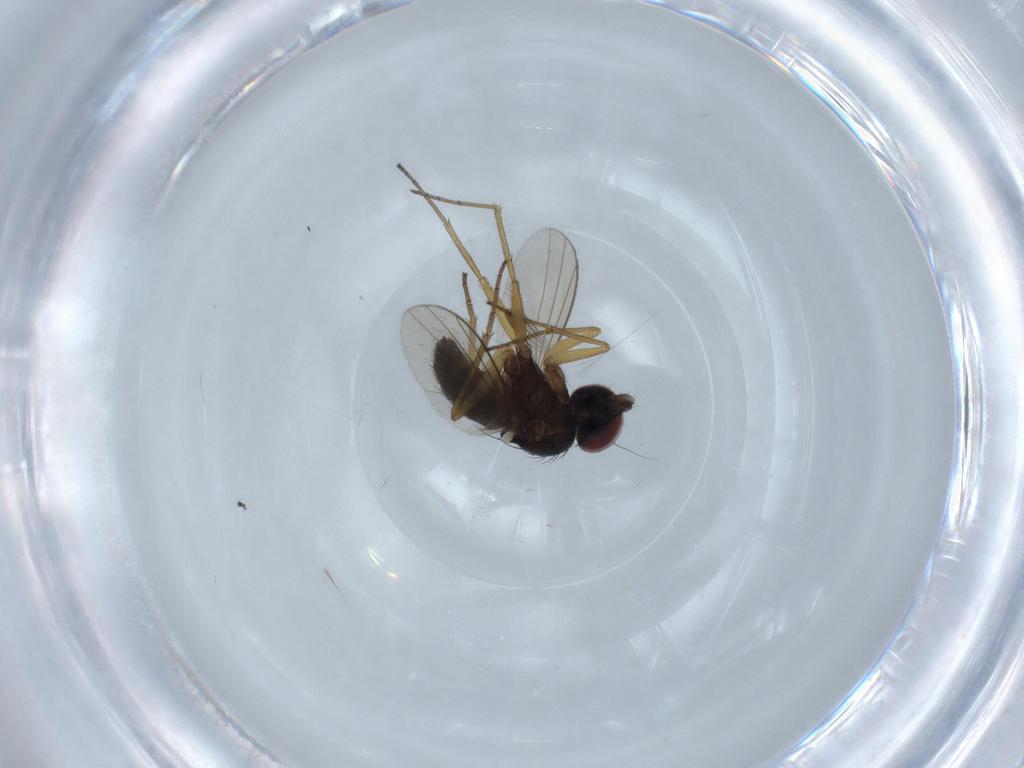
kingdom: Animalia
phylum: Arthropoda
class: Insecta
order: Diptera
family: Dolichopodidae
